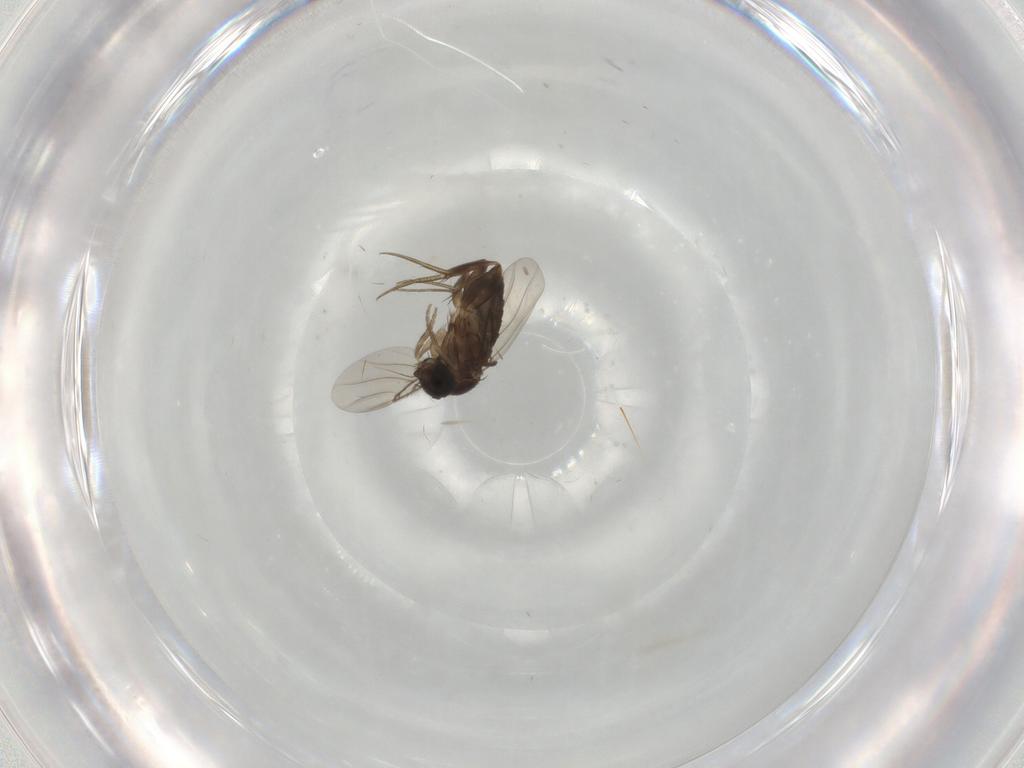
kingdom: Animalia
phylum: Arthropoda
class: Insecta
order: Diptera
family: Phoridae
